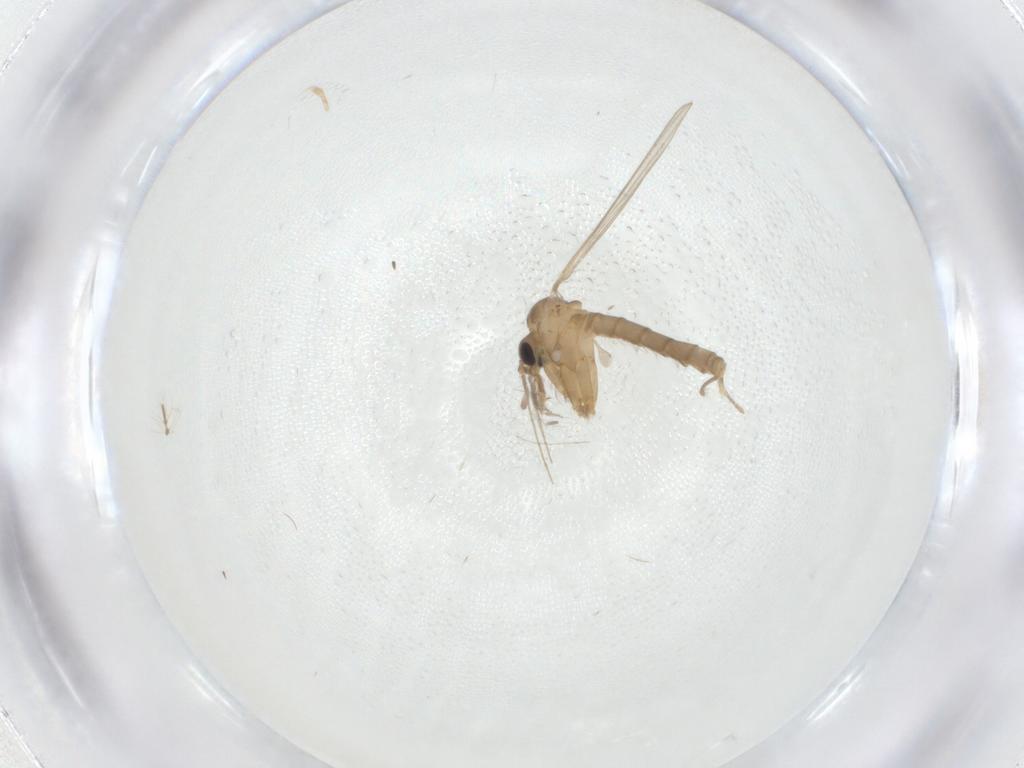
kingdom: Animalia
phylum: Arthropoda
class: Insecta
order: Diptera
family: Psychodidae
